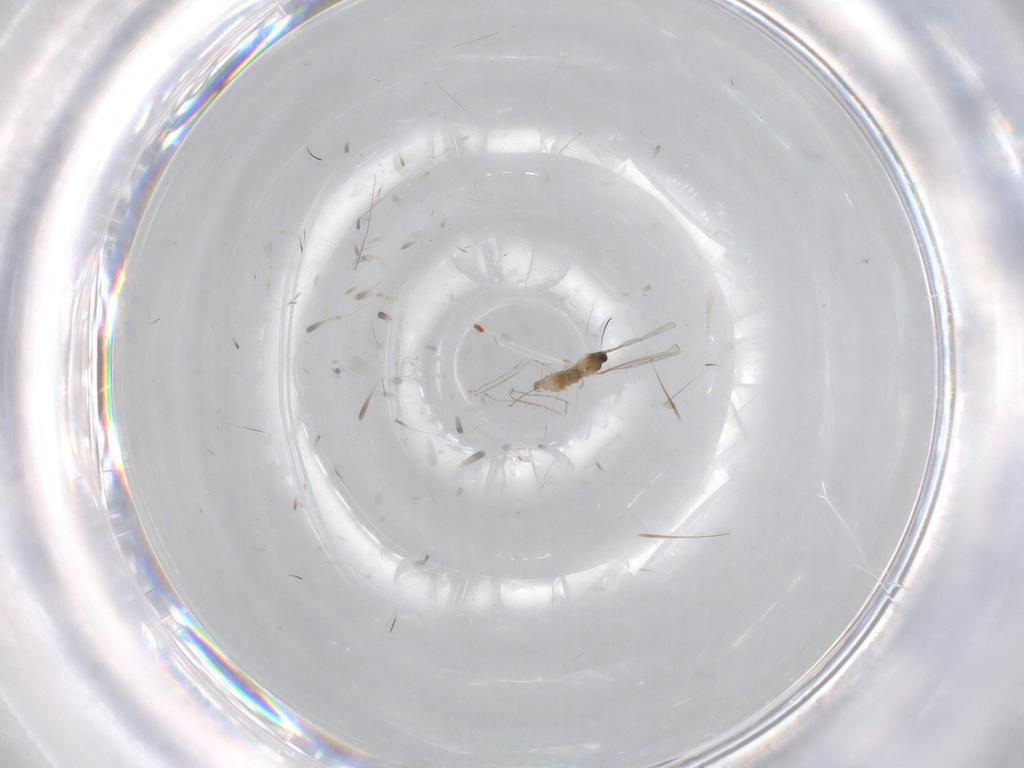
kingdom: Animalia
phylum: Arthropoda
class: Insecta
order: Diptera
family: Cecidomyiidae
